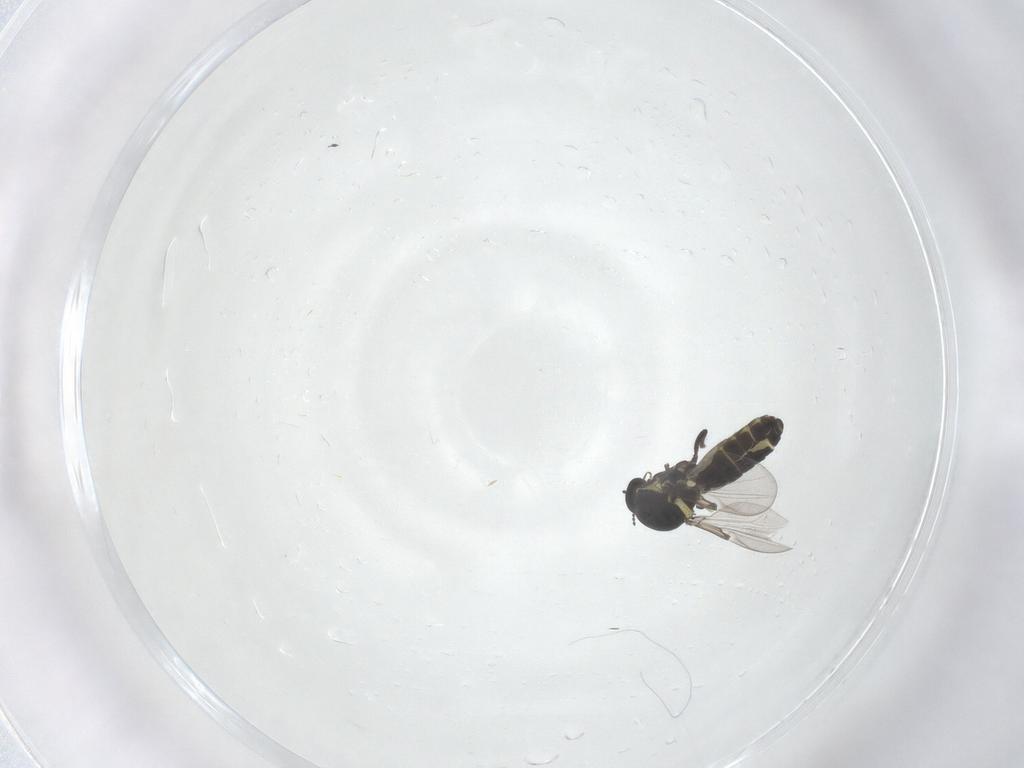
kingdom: Animalia
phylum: Arthropoda
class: Insecta
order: Diptera
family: Ceratopogonidae
